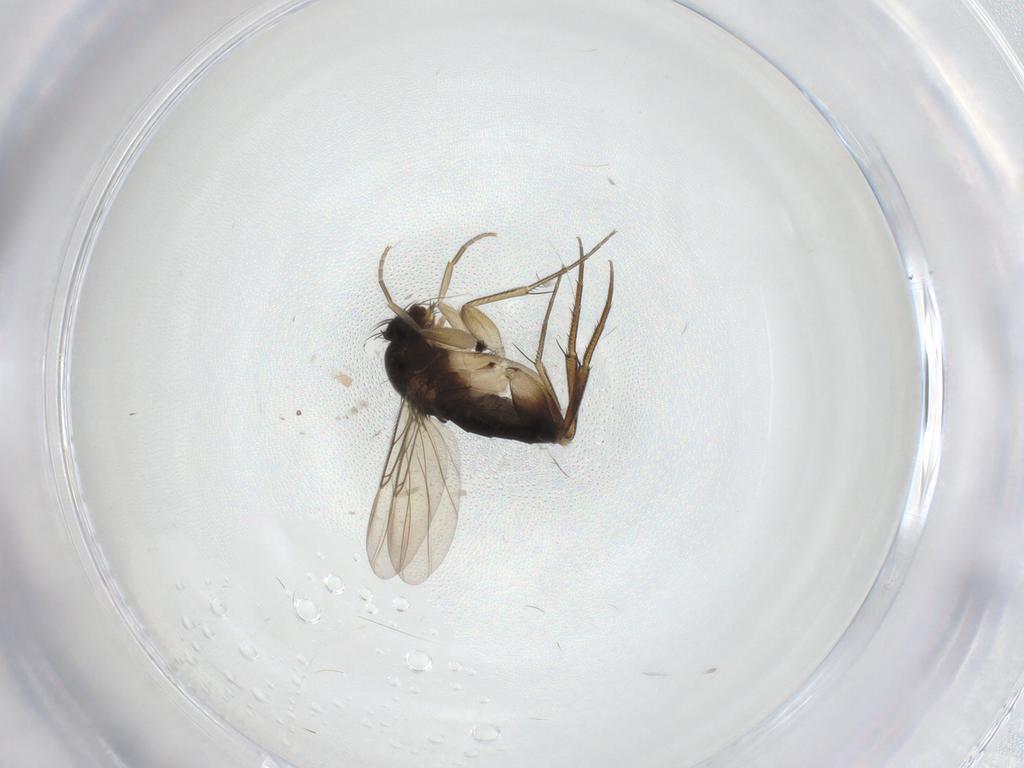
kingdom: Animalia
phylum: Arthropoda
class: Insecta
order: Diptera
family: Phoridae
